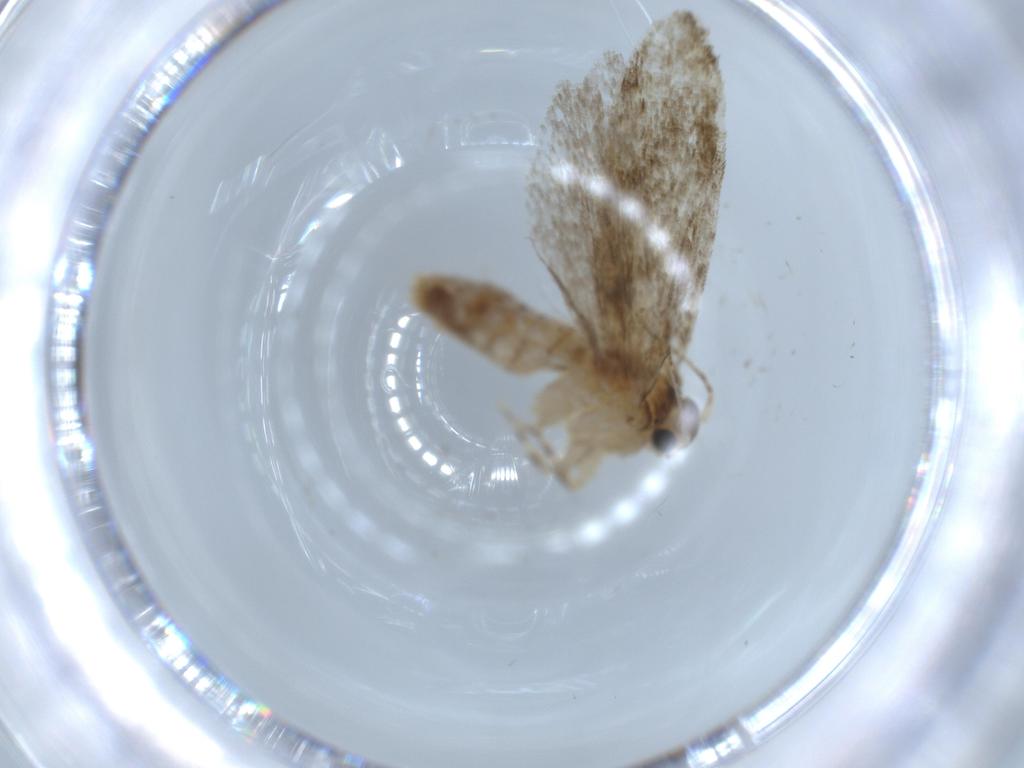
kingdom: Animalia
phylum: Arthropoda
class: Insecta
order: Lepidoptera
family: Tineidae
